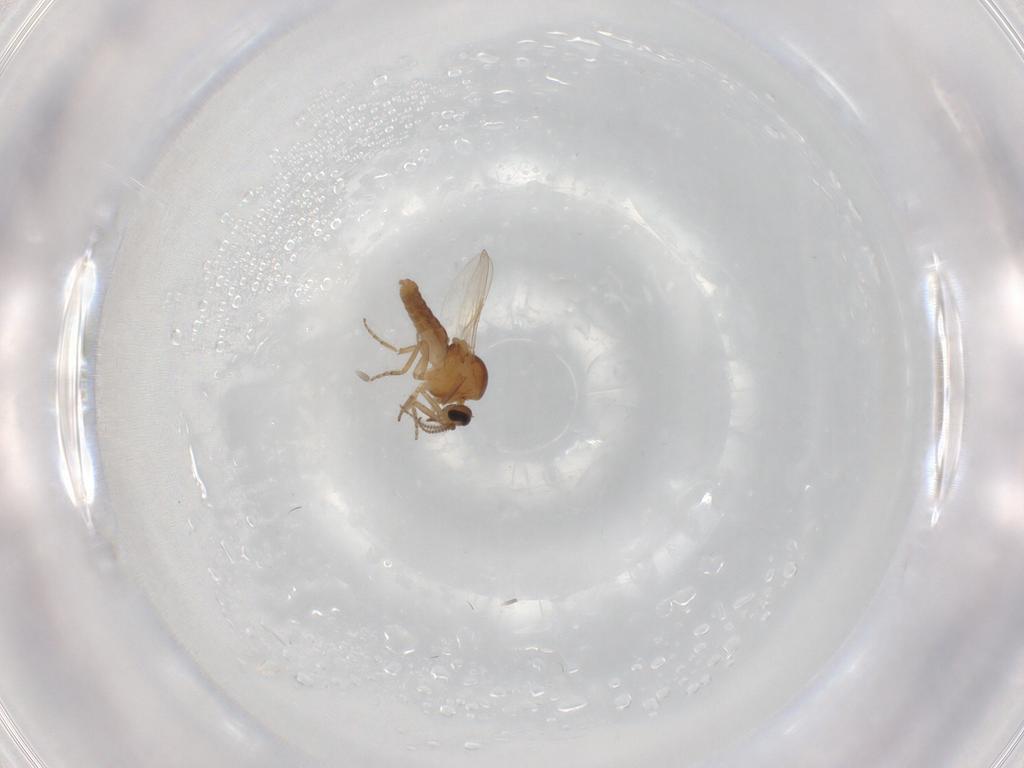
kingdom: Animalia
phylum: Arthropoda
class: Insecta
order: Diptera
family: Ceratopogonidae
